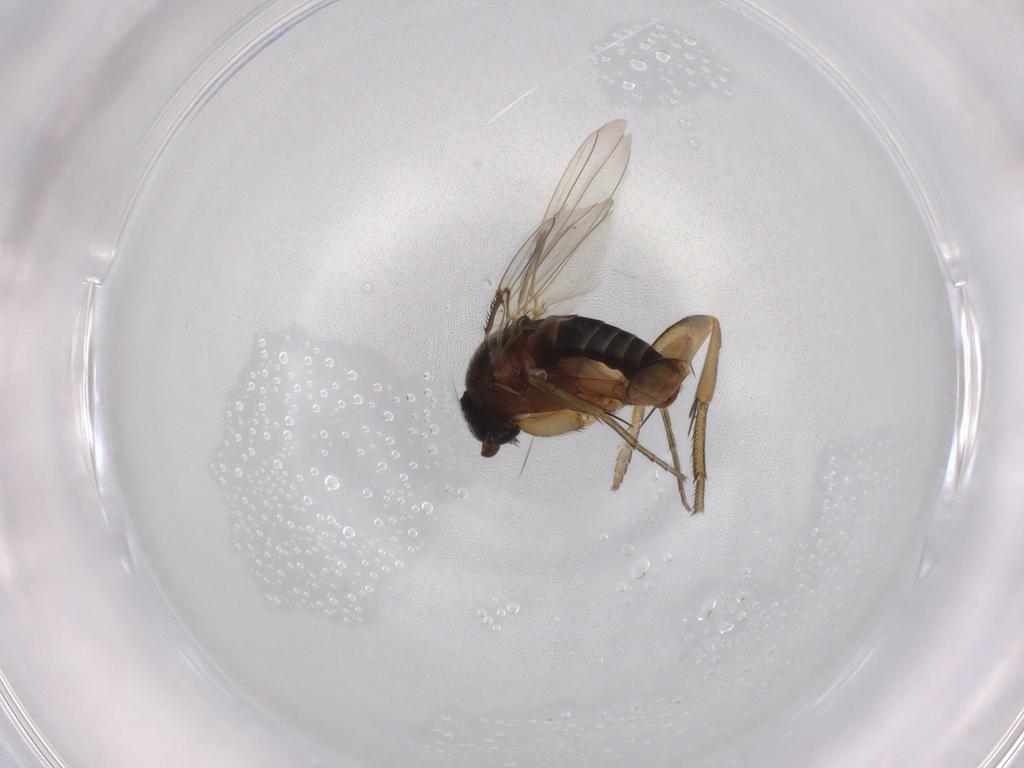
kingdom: Animalia
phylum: Arthropoda
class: Insecta
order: Diptera
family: Phoridae
